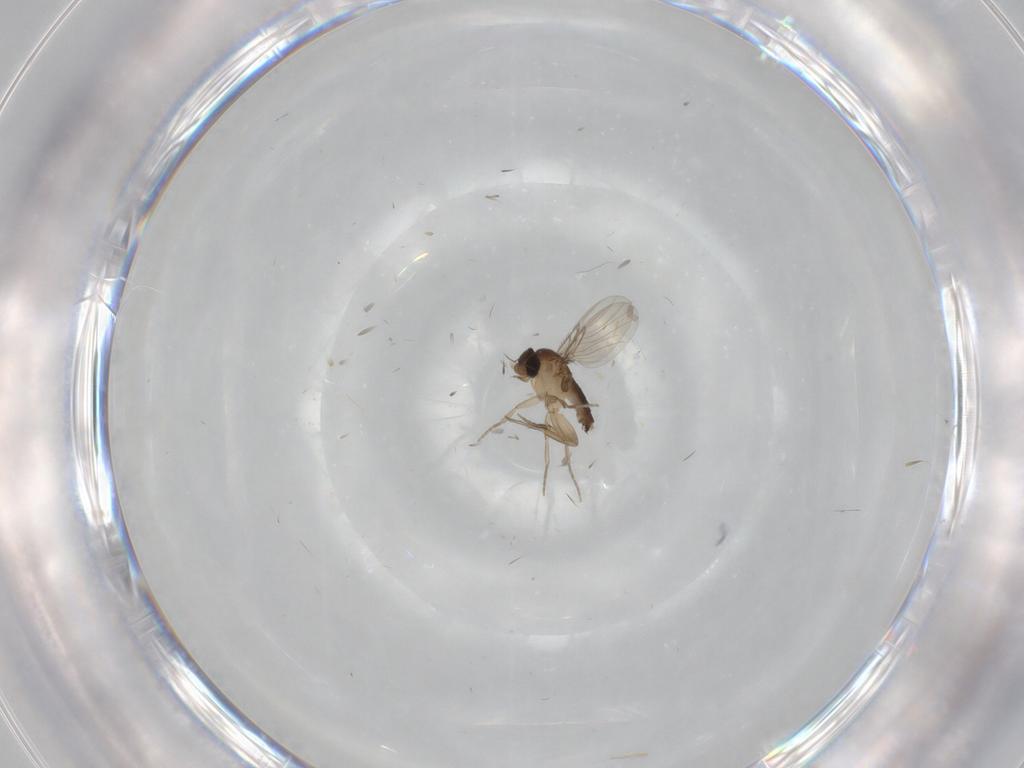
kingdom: Animalia
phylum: Arthropoda
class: Insecta
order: Diptera
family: Phoridae
